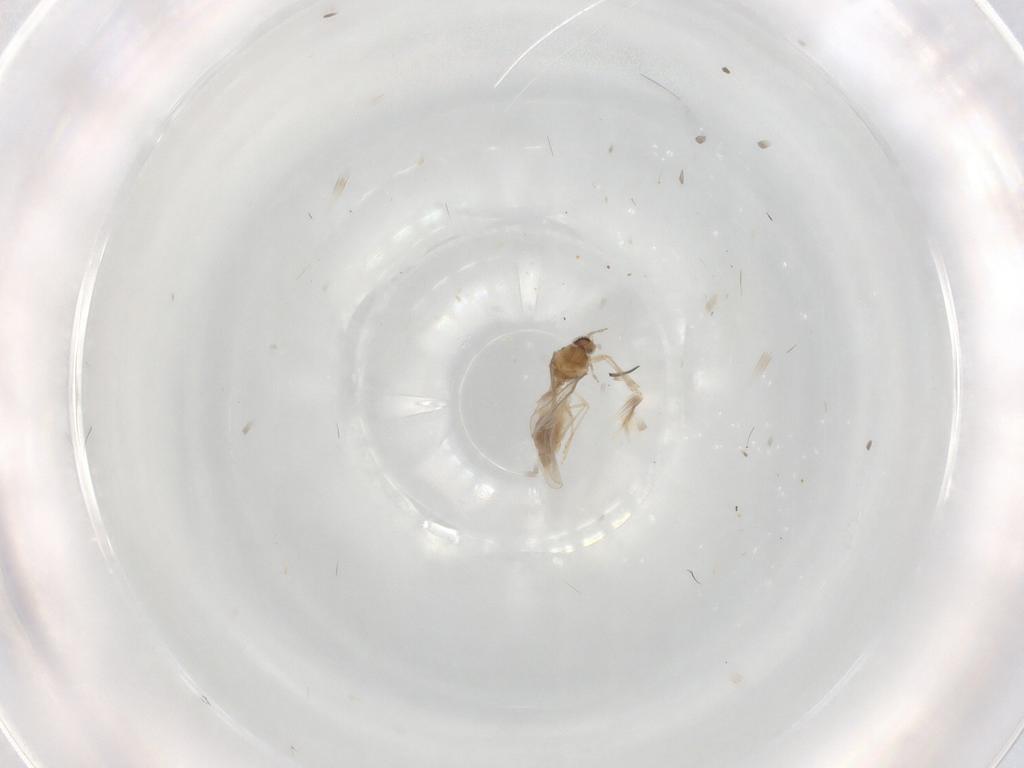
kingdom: Animalia
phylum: Arthropoda
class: Insecta
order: Diptera
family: Cecidomyiidae
